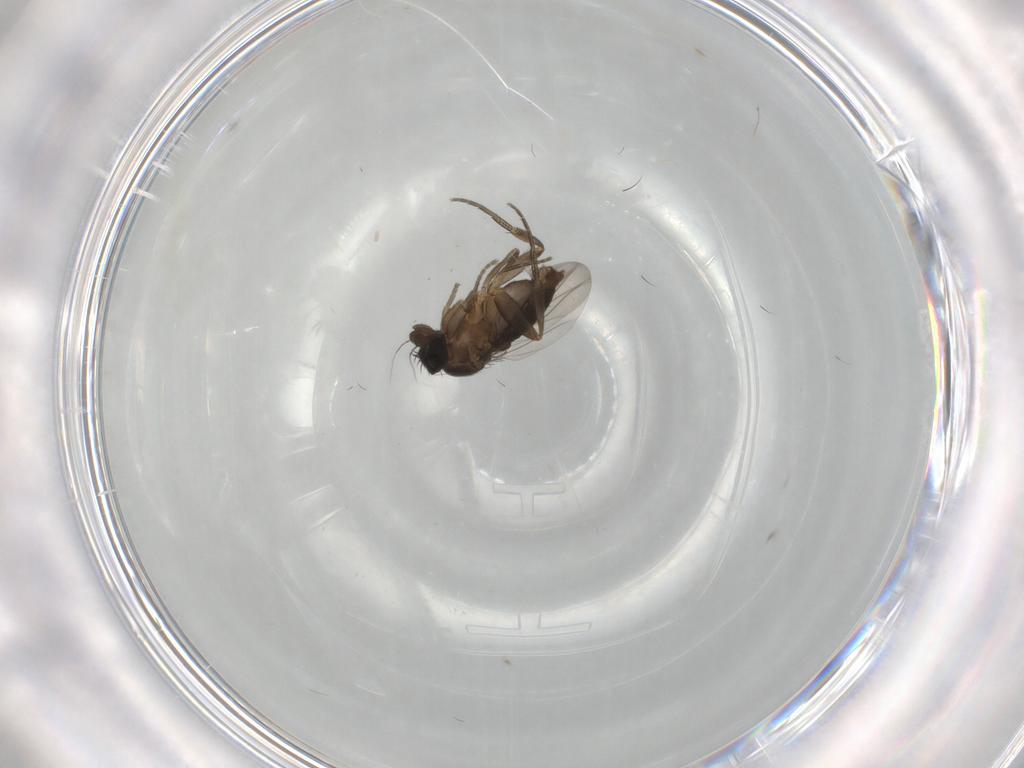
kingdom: Animalia
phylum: Arthropoda
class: Insecta
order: Diptera
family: Phoridae
